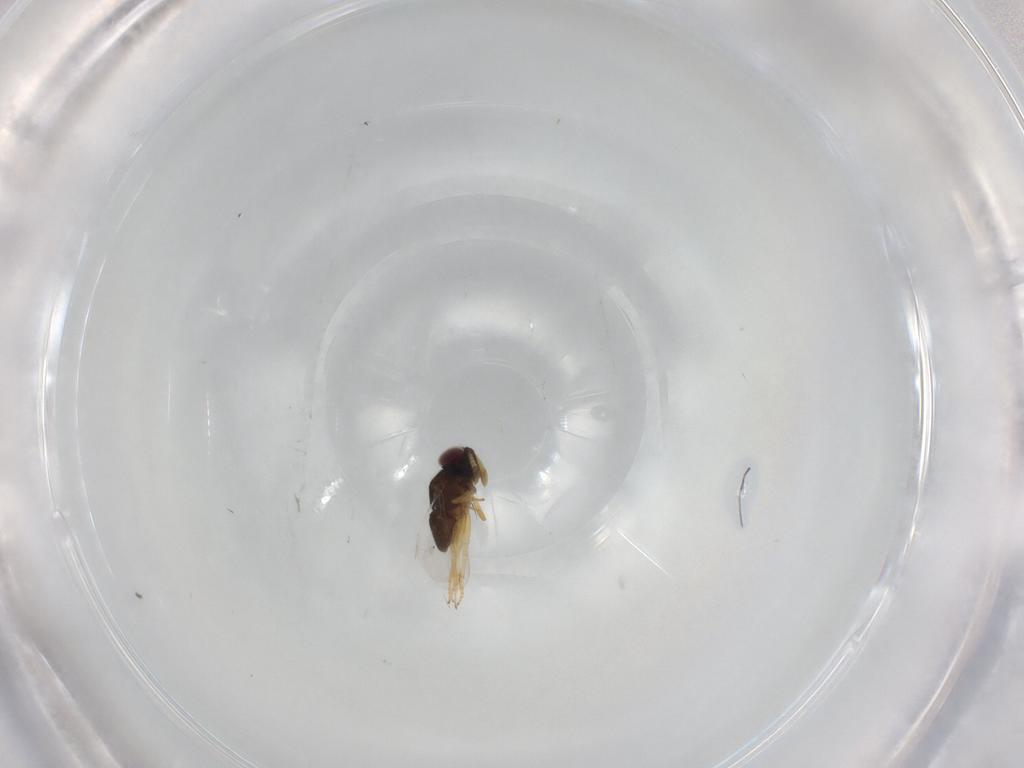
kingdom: Animalia
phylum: Arthropoda
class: Insecta
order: Hymenoptera
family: Encyrtidae
